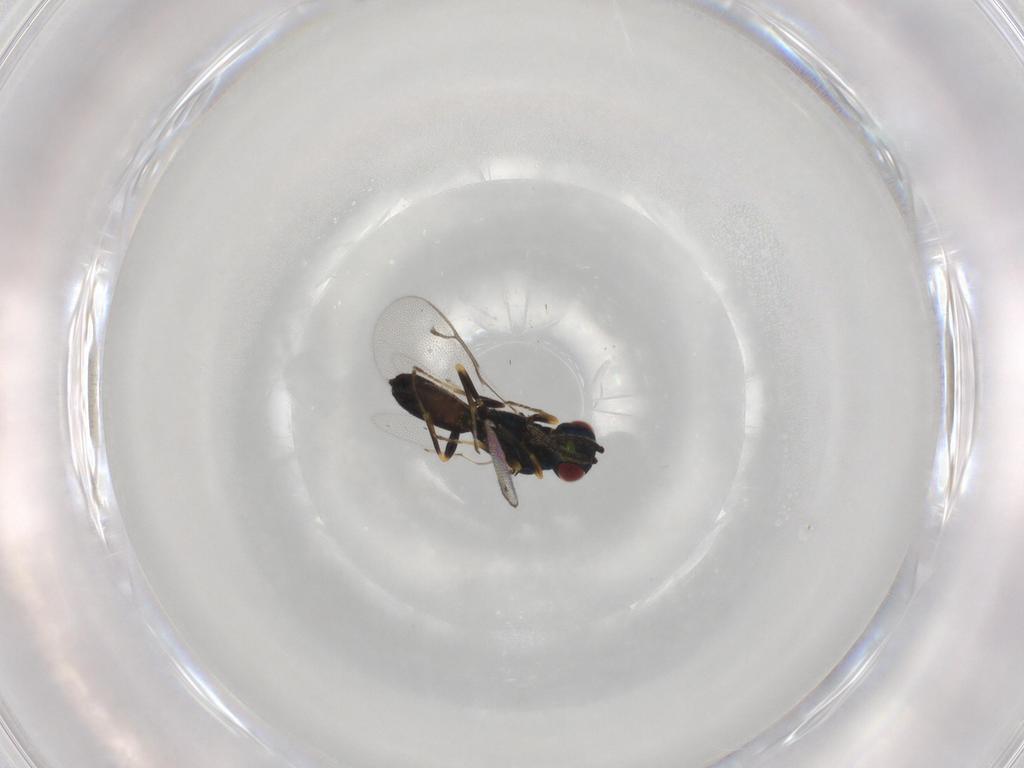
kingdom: Animalia
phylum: Arthropoda
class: Insecta
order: Hymenoptera
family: Pteromalidae
